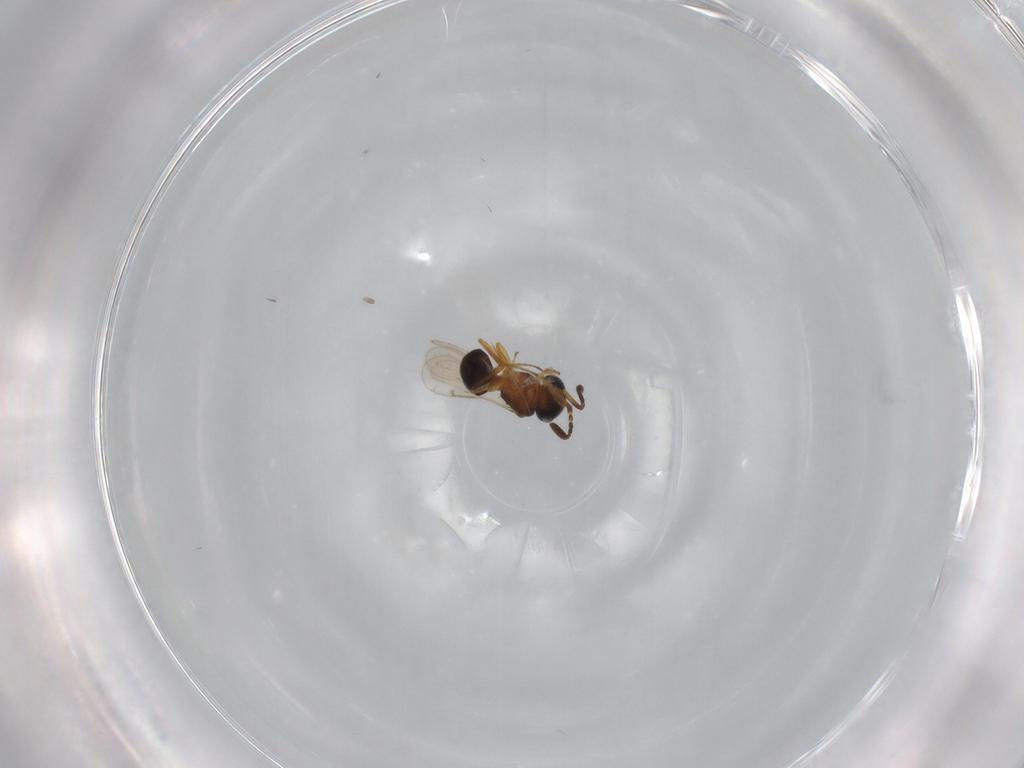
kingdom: Animalia
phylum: Arthropoda
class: Insecta
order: Hymenoptera
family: Scelionidae
